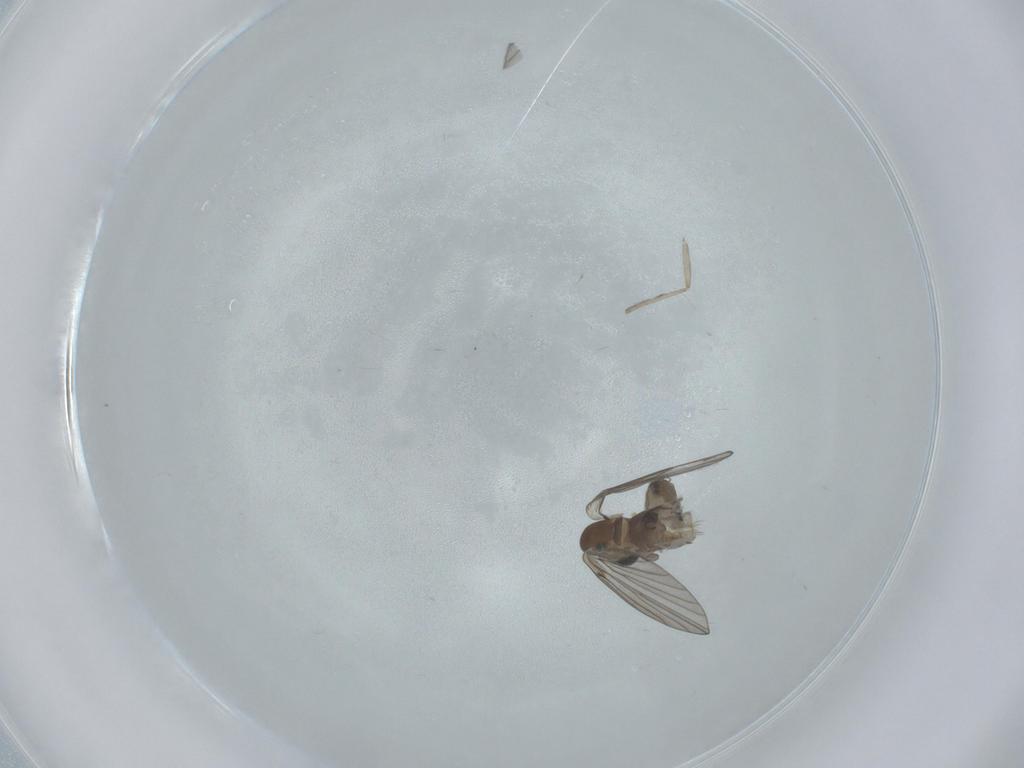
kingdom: Animalia
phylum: Arthropoda
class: Insecta
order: Diptera
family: Psychodidae
